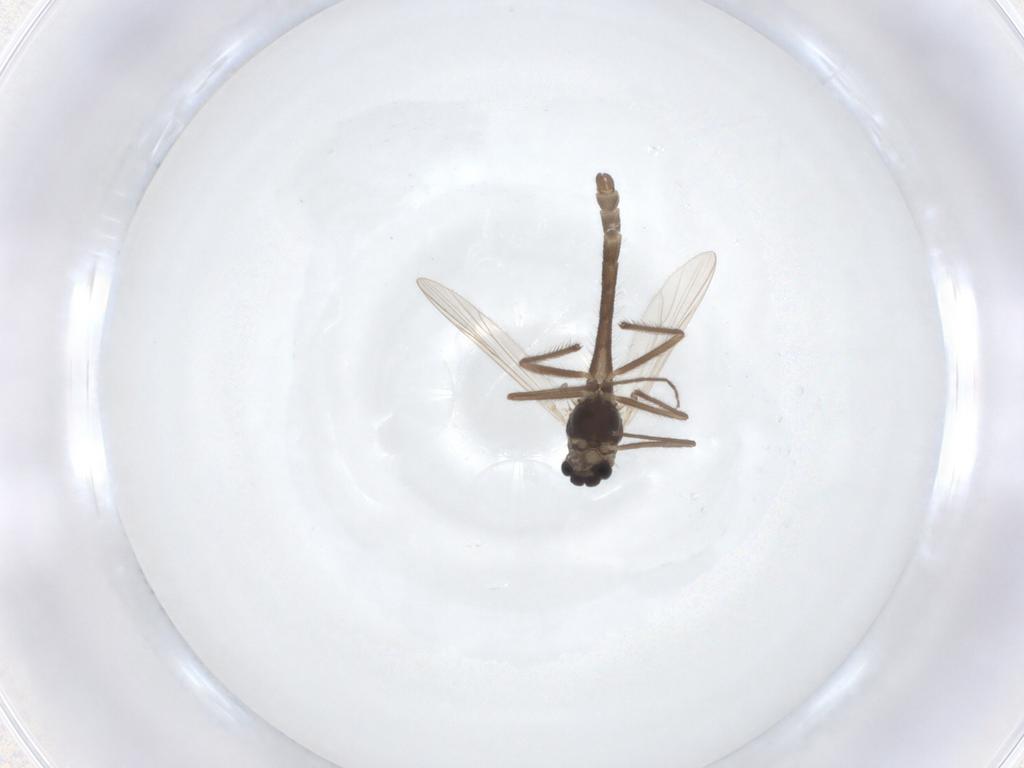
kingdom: Animalia
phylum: Arthropoda
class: Insecta
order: Diptera
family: Chironomidae
